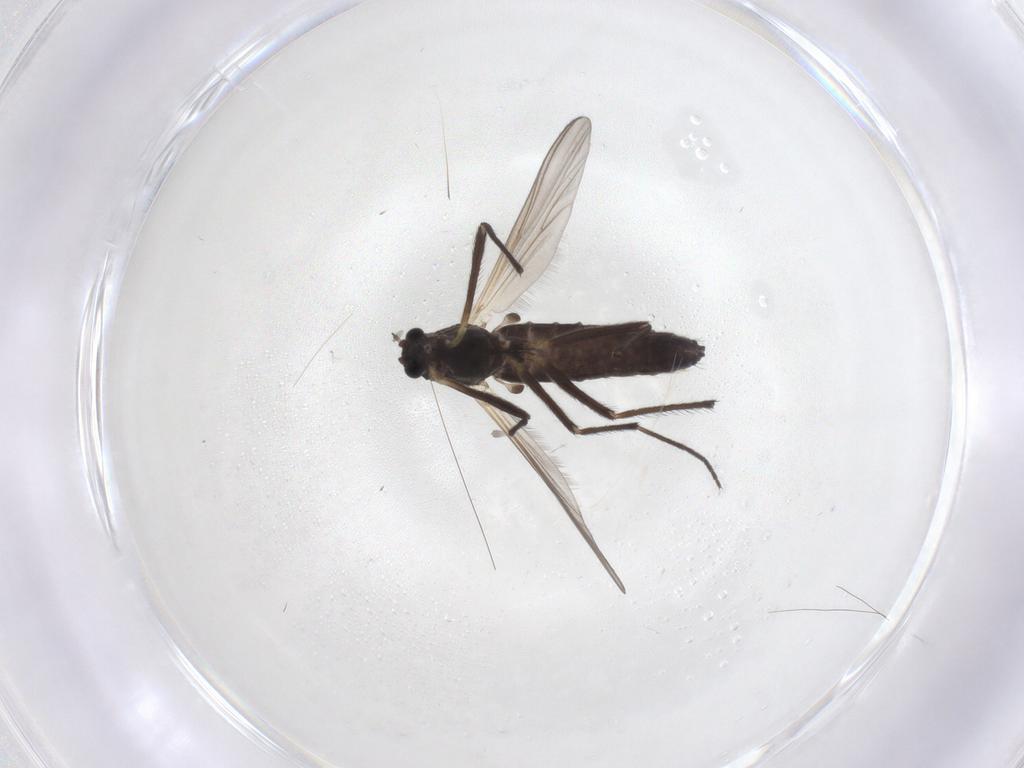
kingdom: Animalia
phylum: Arthropoda
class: Insecta
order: Diptera
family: Chironomidae
